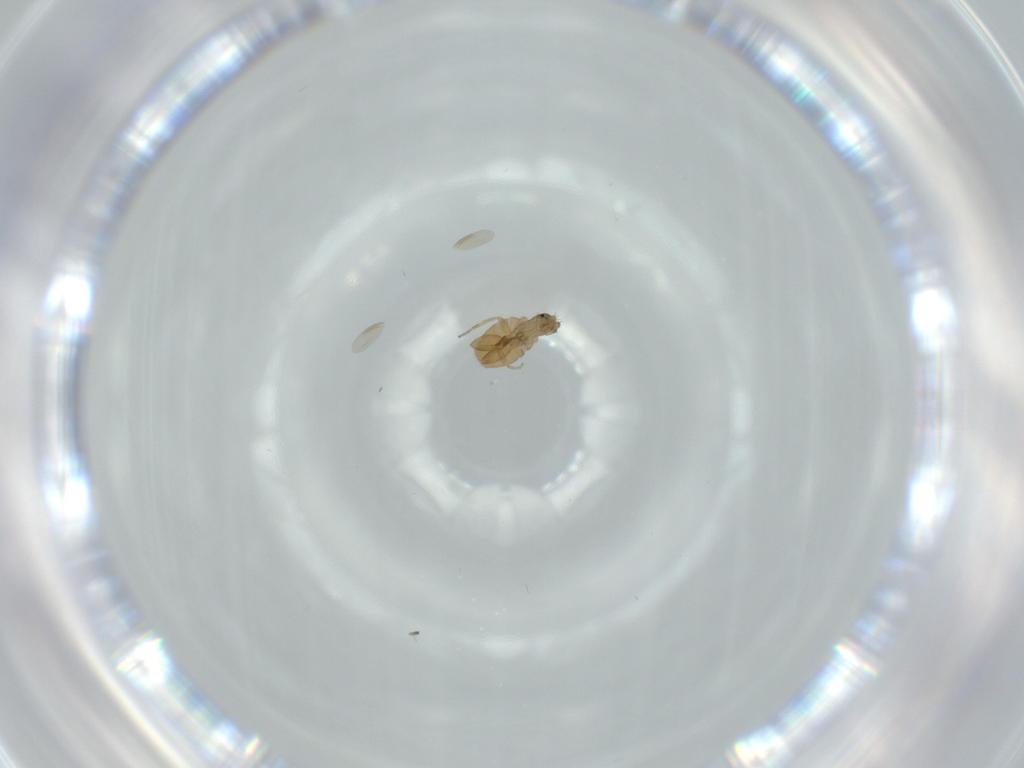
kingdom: Animalia
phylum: Arthropoda
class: Insecta
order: Diptera
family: Phoridae
